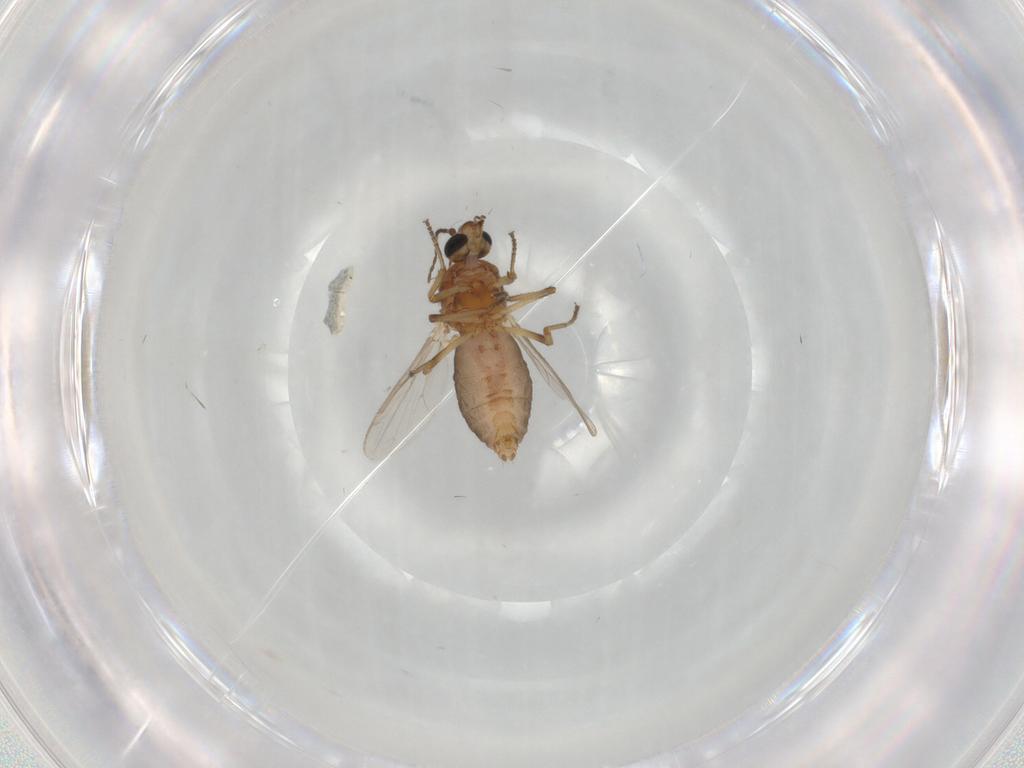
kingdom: Animalia
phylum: Arthropoda
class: Insecta
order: Diptera
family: Ceratopogonidae
